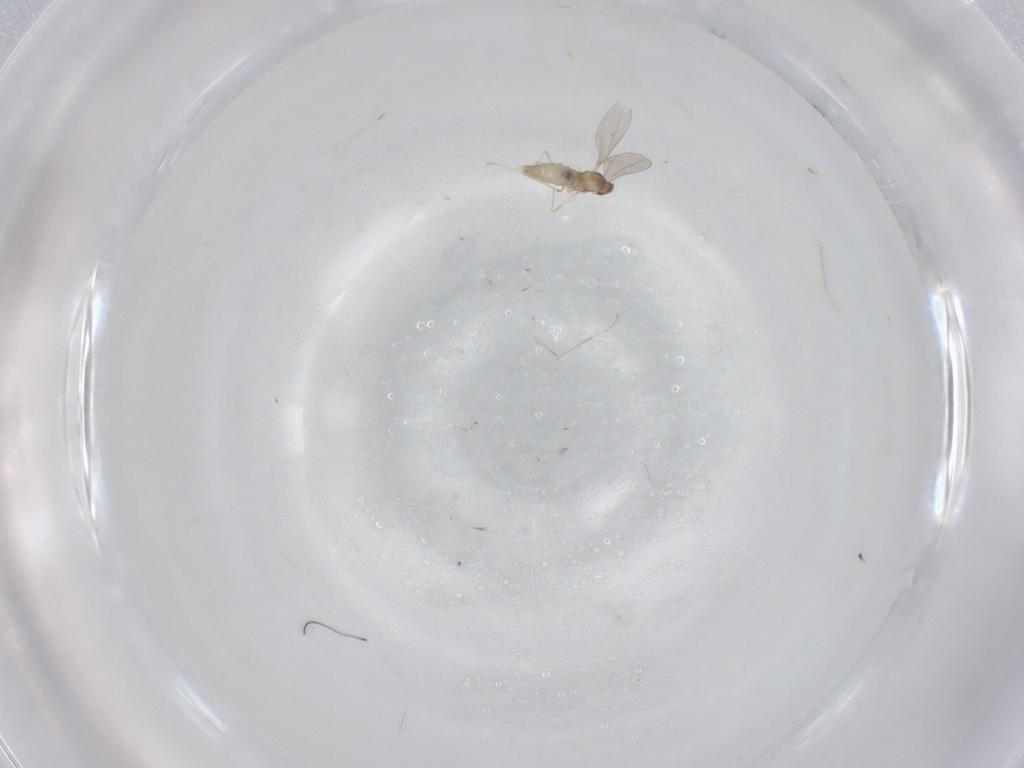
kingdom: Animalia
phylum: Arthropoda
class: Insecta
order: Diptera
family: Cecidomyiidae
